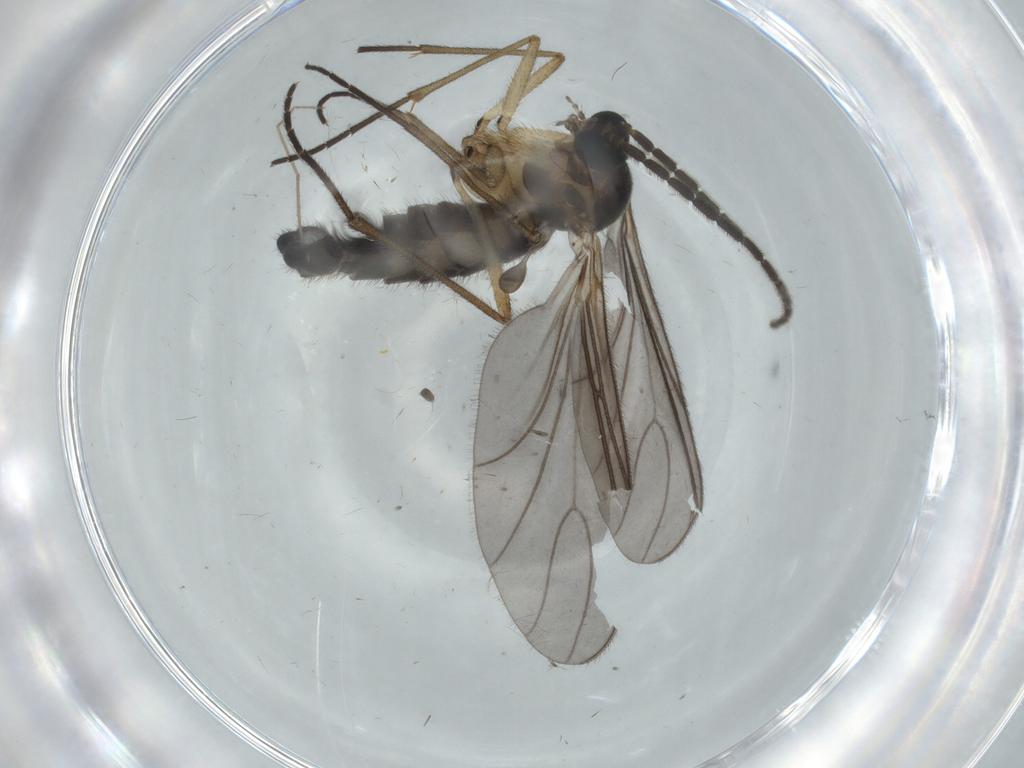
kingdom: Animalia
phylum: Arthropoda
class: Insecta
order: Diptera
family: Sciaridae
